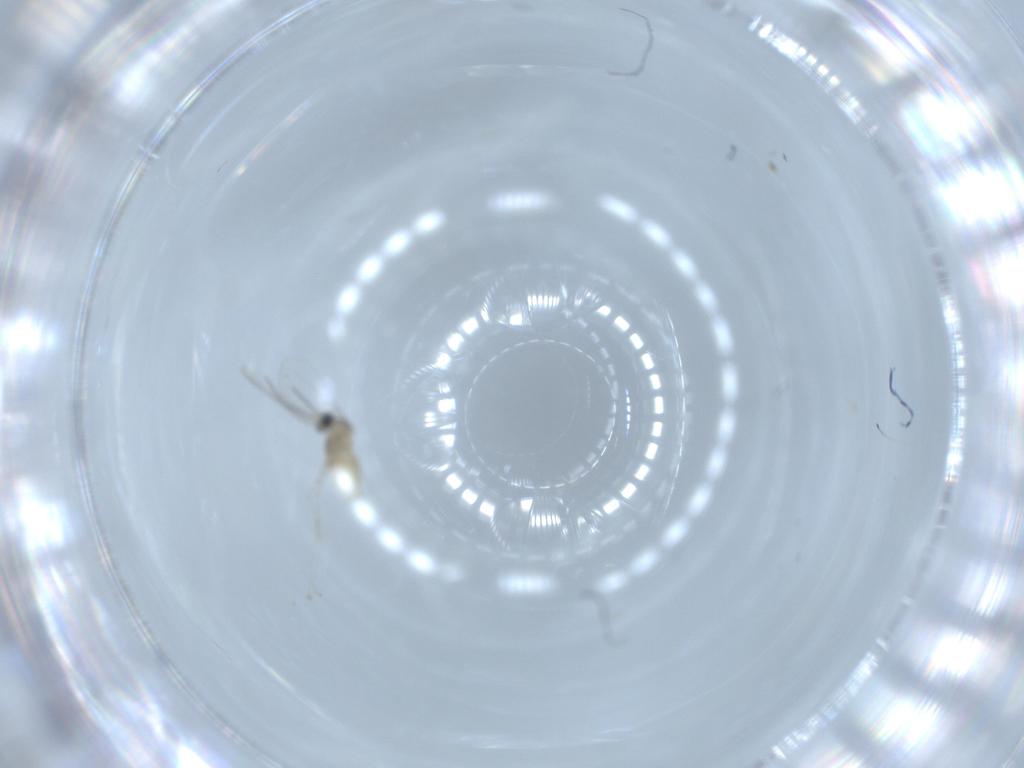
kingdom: Animalia
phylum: Arthropoda
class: Insecta
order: Diptera
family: Cecidomyiidae
